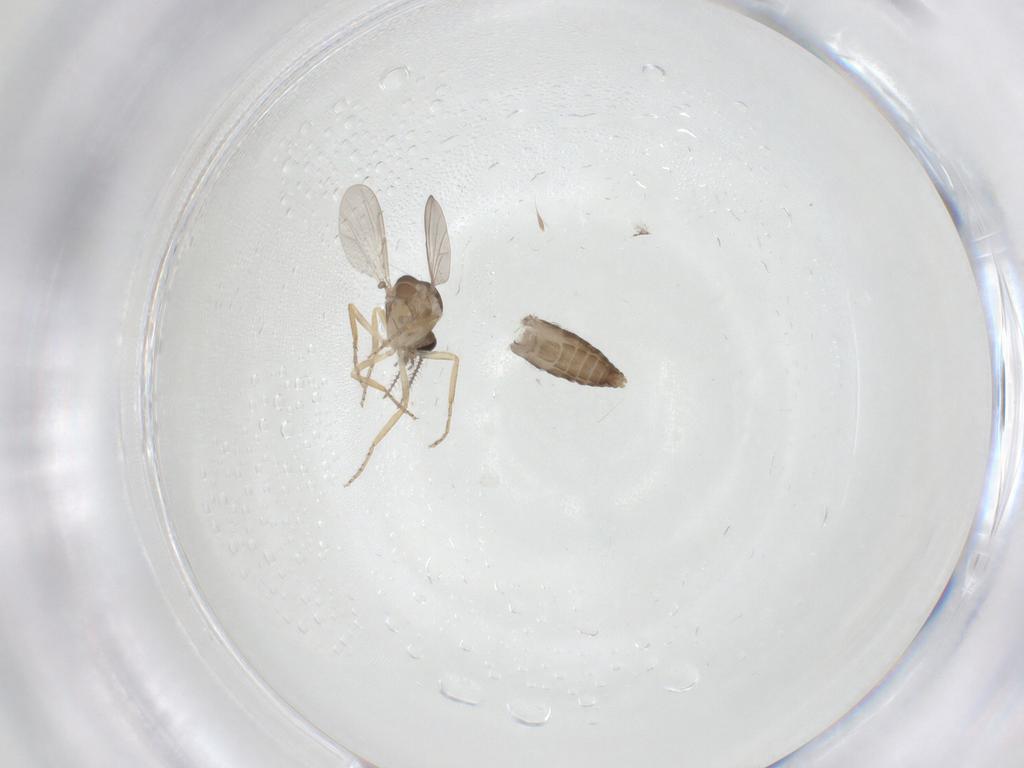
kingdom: Animalia
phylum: Arthropoda
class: Insecta
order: Diptera
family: Ceratopogonidae
